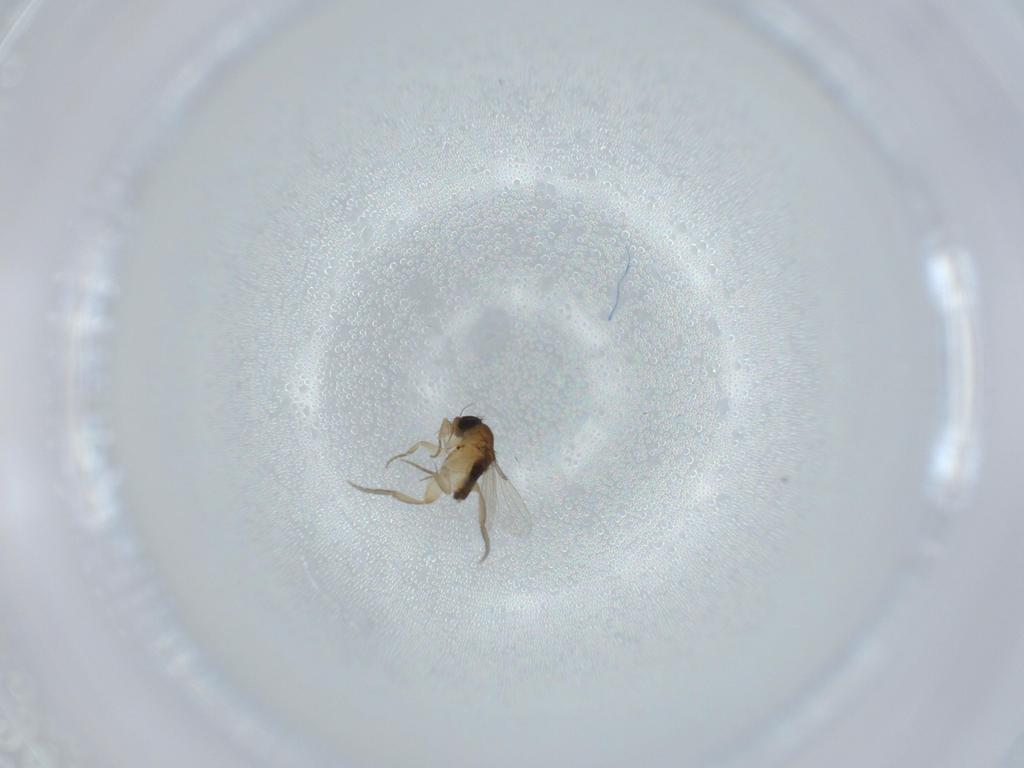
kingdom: Animalia
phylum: Arthropoda
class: Insecta
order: Diptera
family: Phoridae
